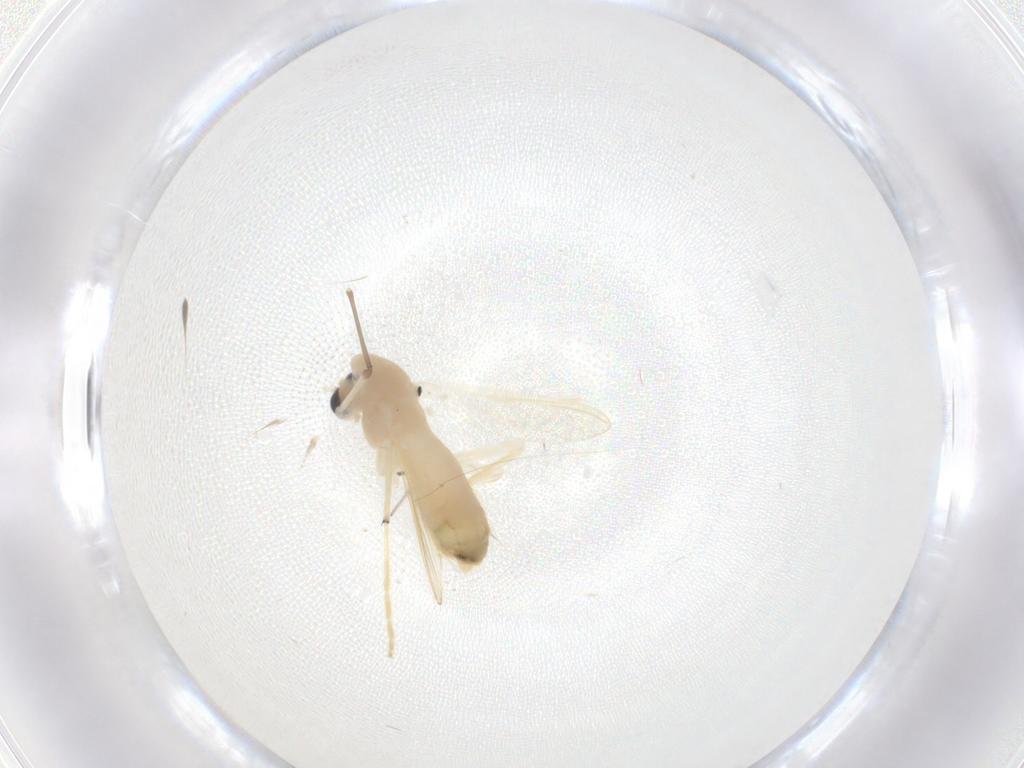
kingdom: Animalia
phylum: Arthropoda
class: Insecta
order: Diptera
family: Chironomidae
